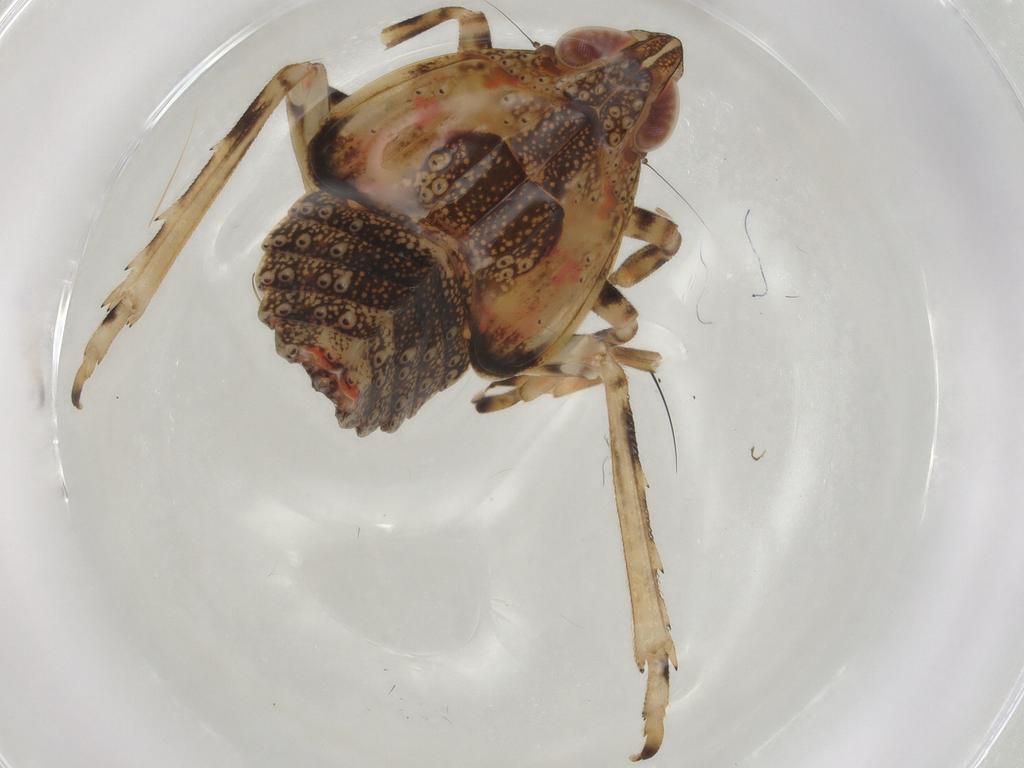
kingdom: Animalia
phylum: Arthropoda
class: Insecta
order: Hemiptera
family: Tropiduchidae
